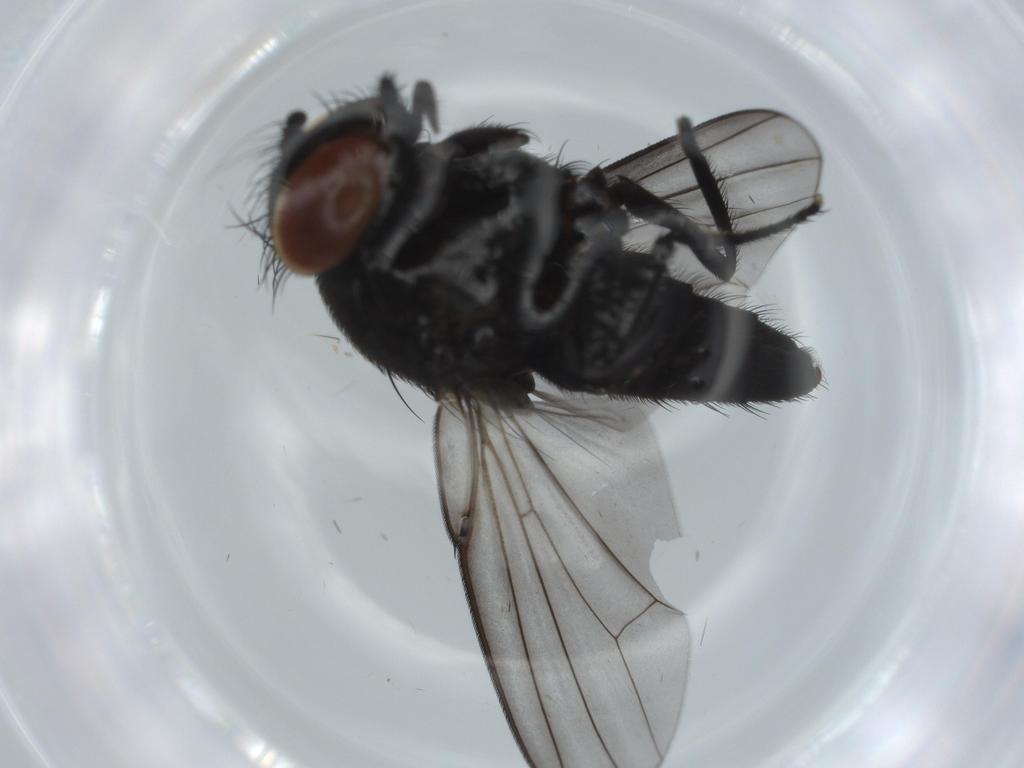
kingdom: Animalia
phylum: Arthropoda
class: Insecta
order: Diptera
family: Milichiidae
